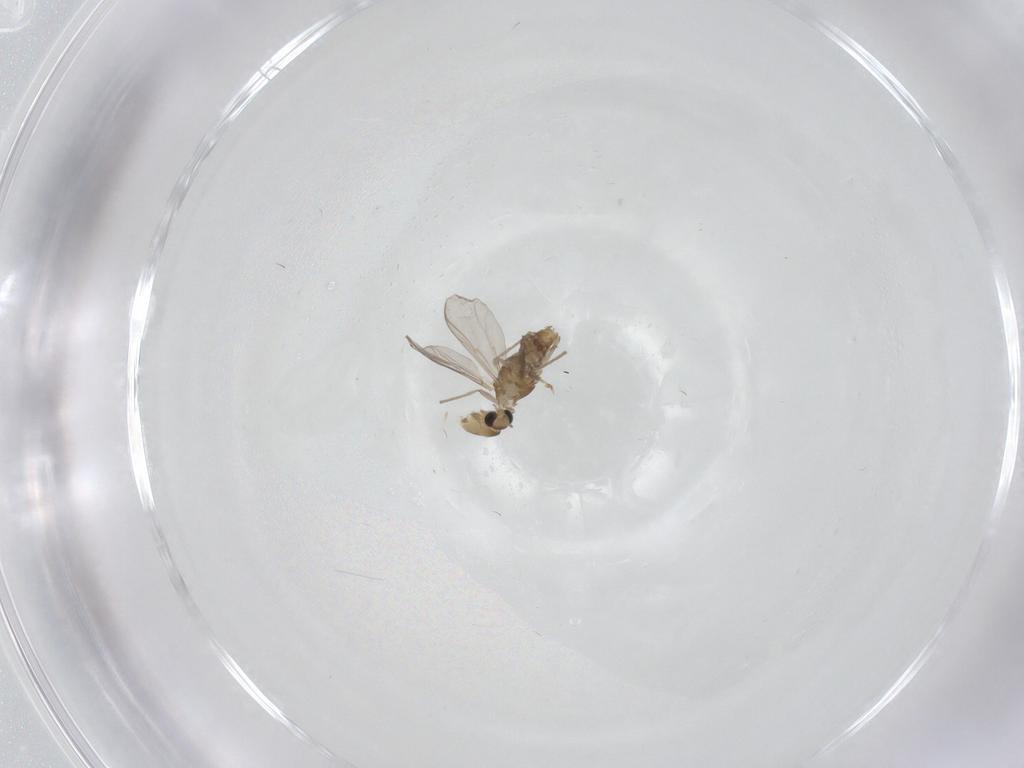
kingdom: Animalia
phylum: Arthropoda
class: Insecta
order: Diptera
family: Chironomidae
